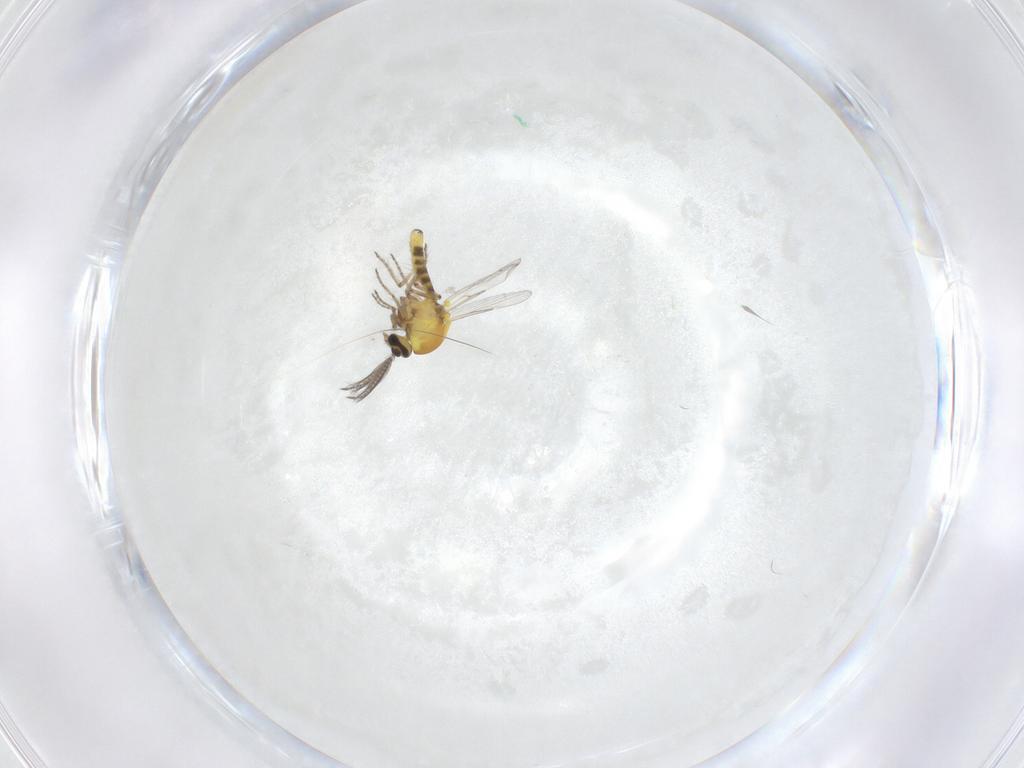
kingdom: Animalia
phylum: Arthropoda
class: Insecta
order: Diptera
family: Ceratopogonidae
